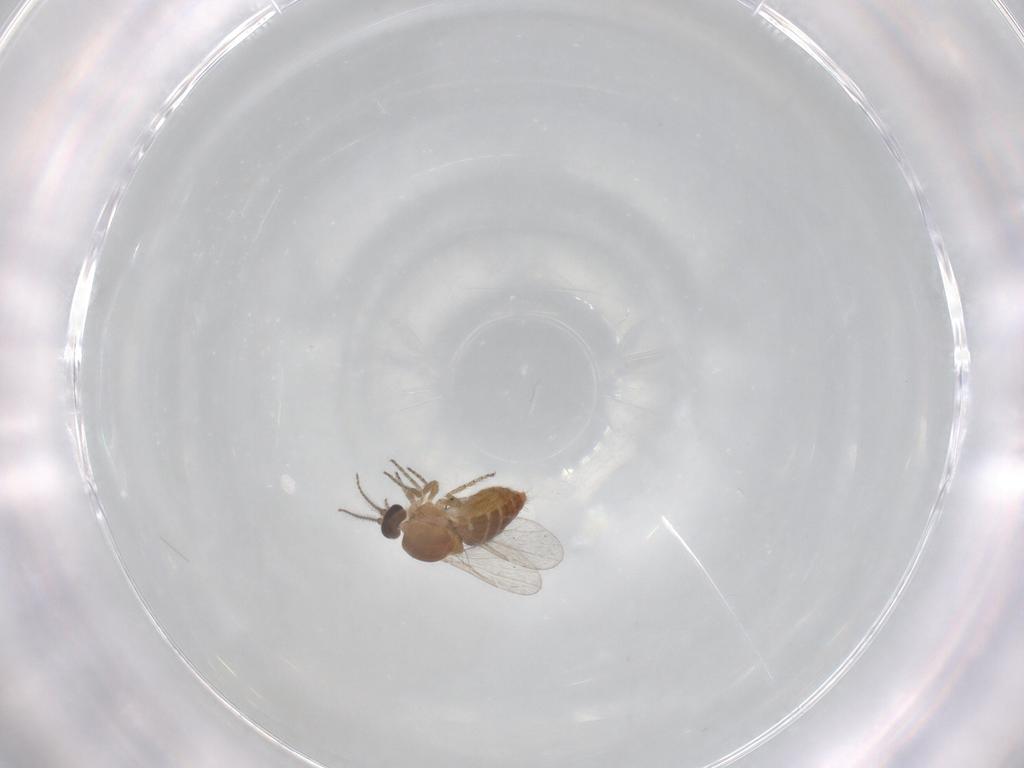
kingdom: Animalia
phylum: Arthropoda
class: Insecta
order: Diptera
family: Ceratopogonidae
